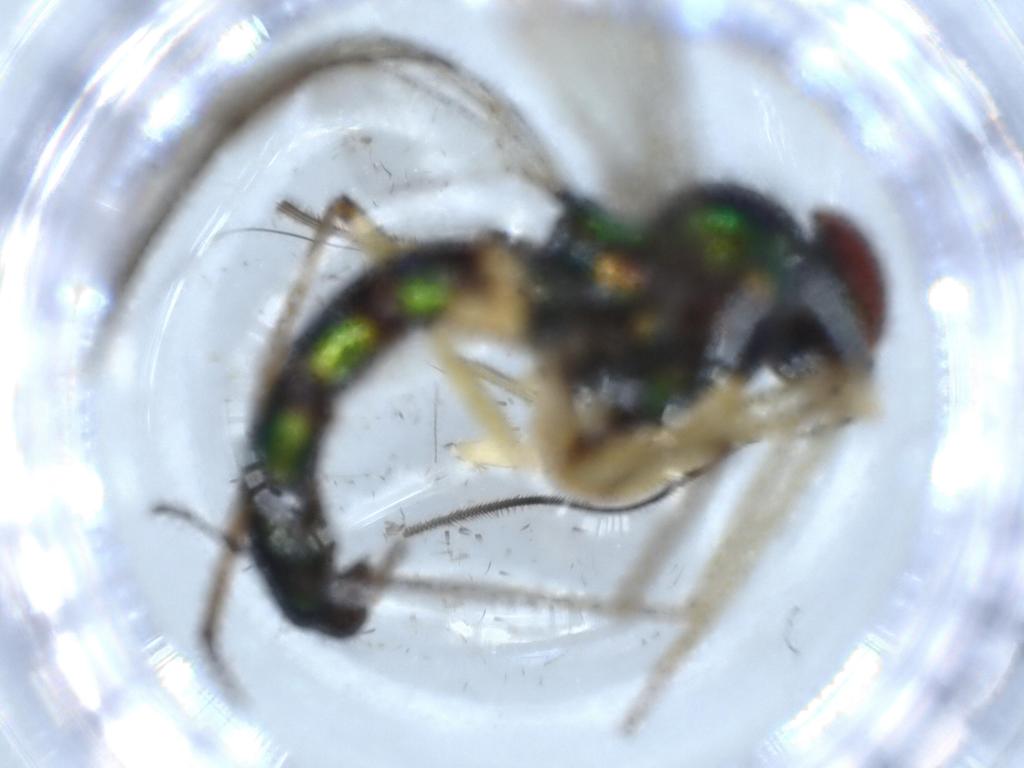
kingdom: Animalia
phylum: Arthropoda
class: Insecta
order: Diptera
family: Dolichopodidae
